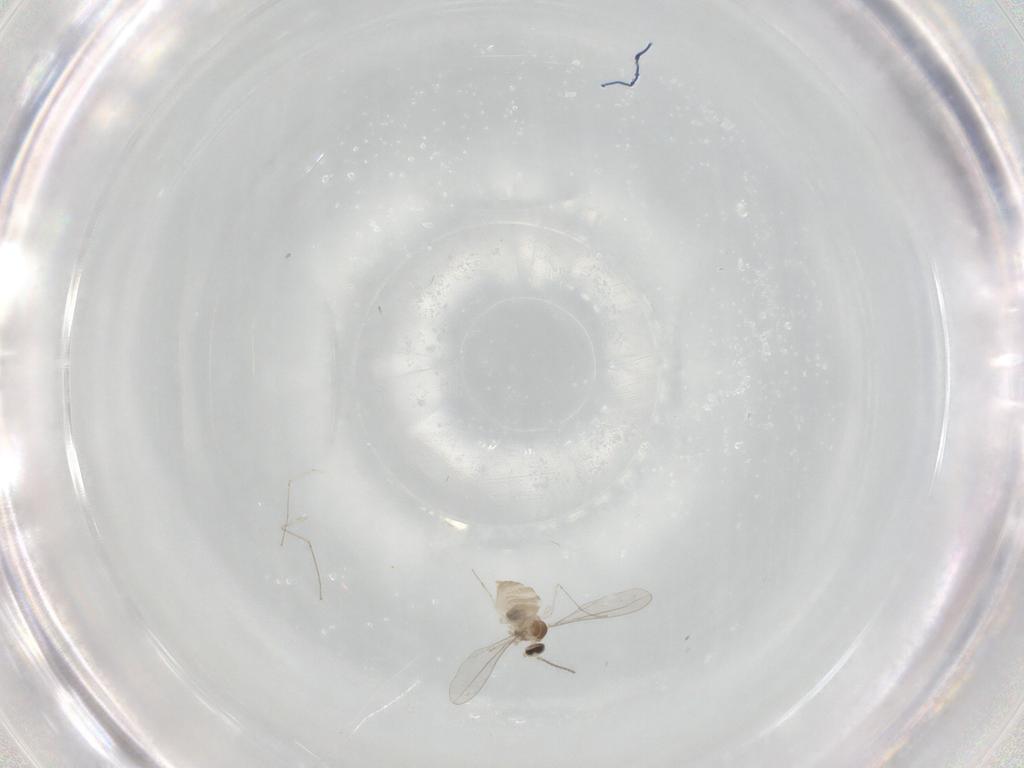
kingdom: Animalia
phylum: Arthropoda
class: Insecta
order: Diptera
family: Cecidomyiidae
